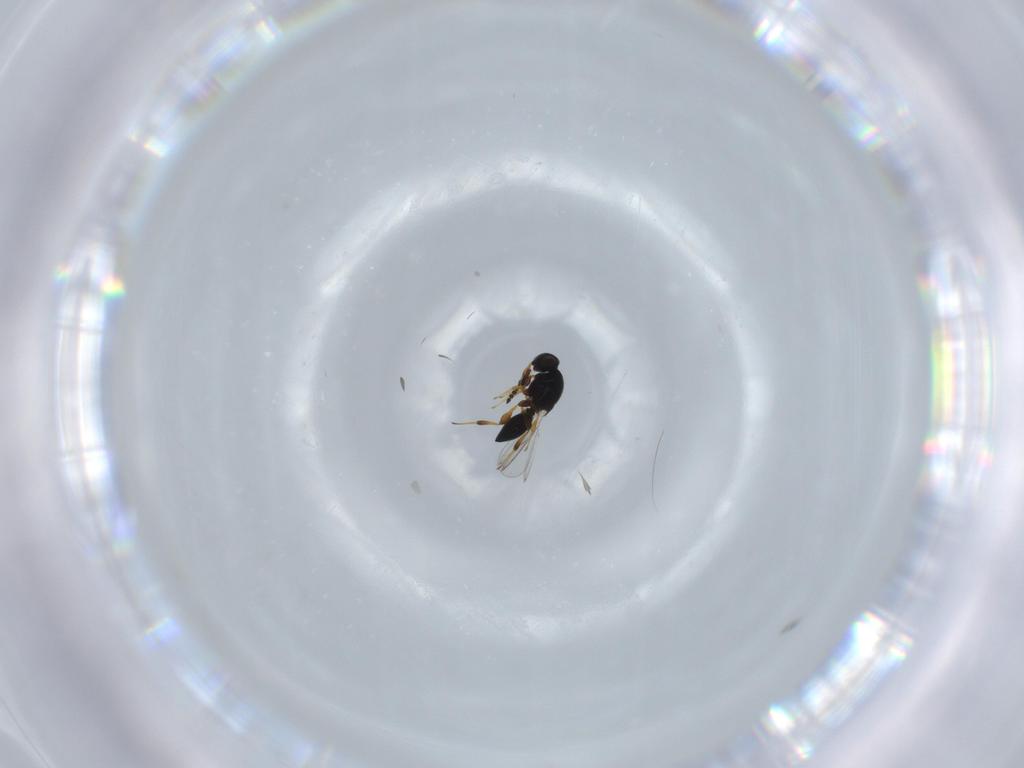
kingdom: Animalia
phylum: Arthropoda
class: Insecta
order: Hymenoptera
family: Platygastridae
